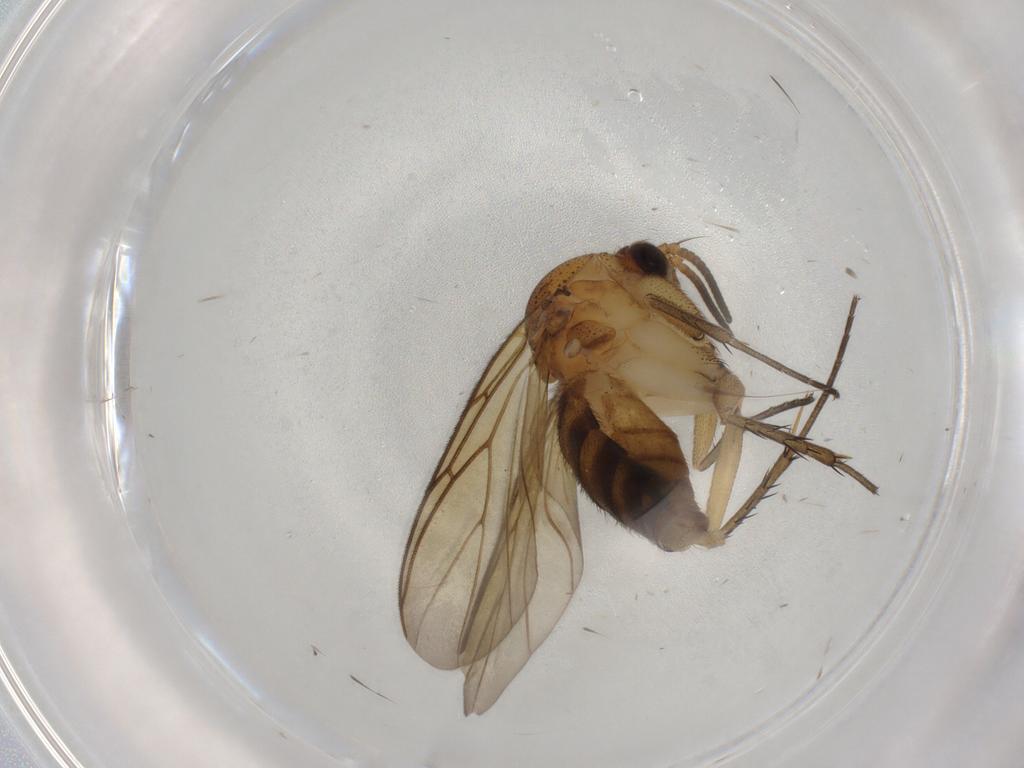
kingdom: Animalia
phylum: Arthropoda
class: Insecta
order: Diptera
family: Mycetophilidae
